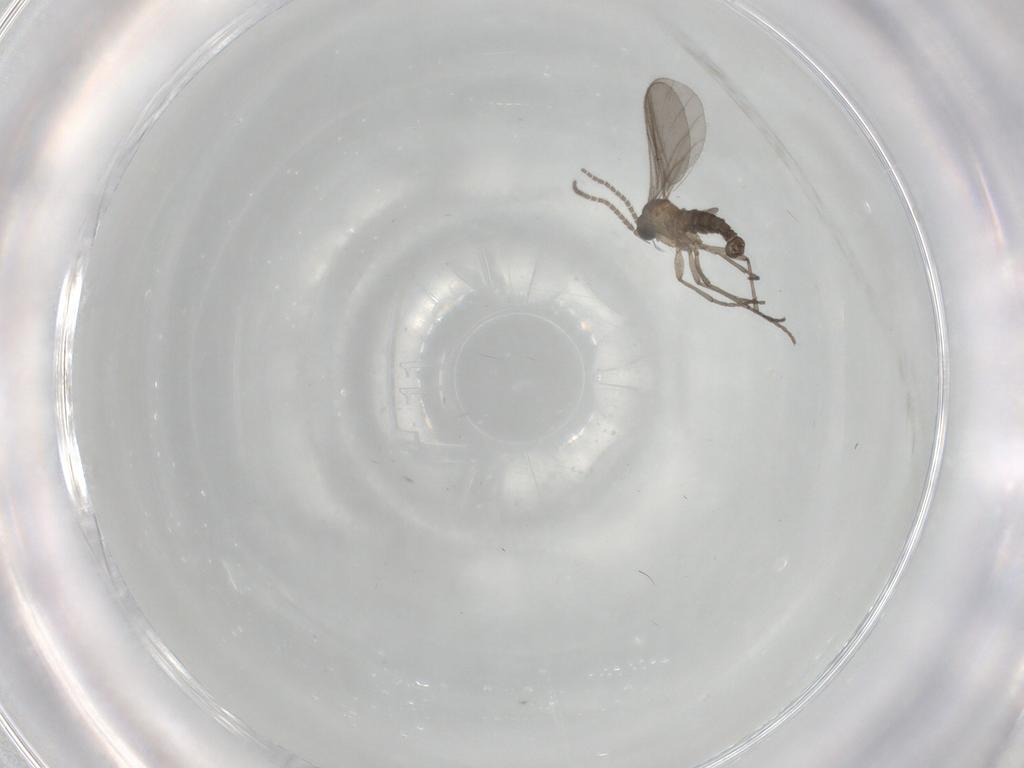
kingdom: Animalia
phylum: Arthropoda
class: Insecta
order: Diptera
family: Sciaridae
